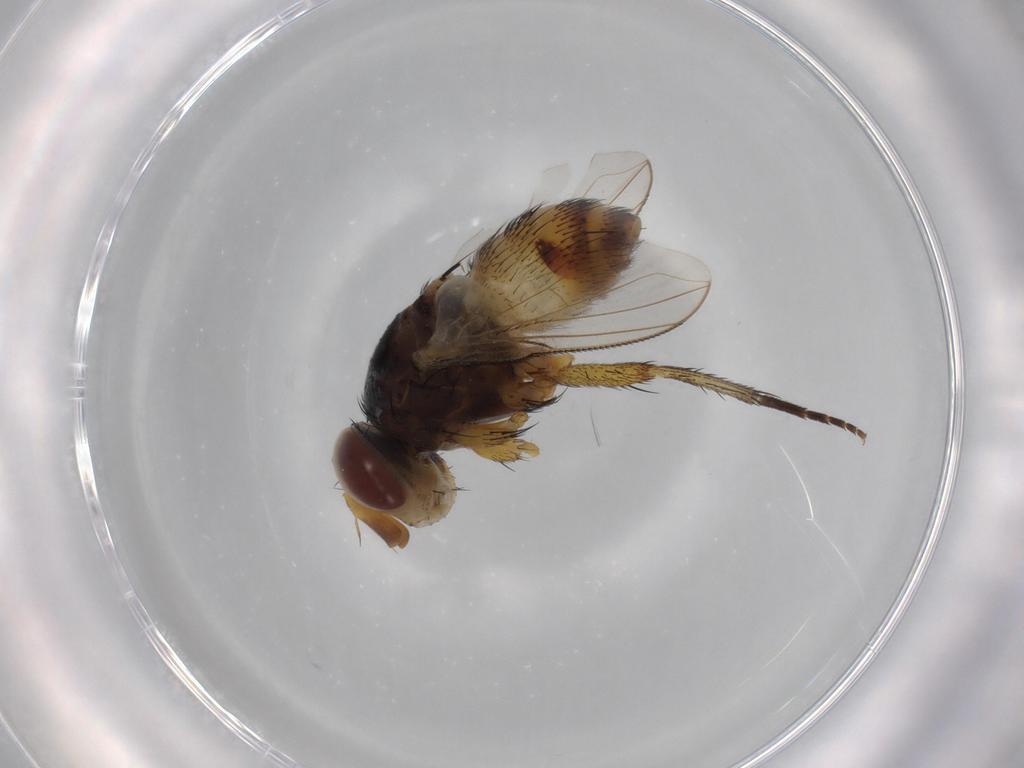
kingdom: Animalia
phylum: Arthropoda
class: Insecta
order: Diptera
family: Tachinidae
